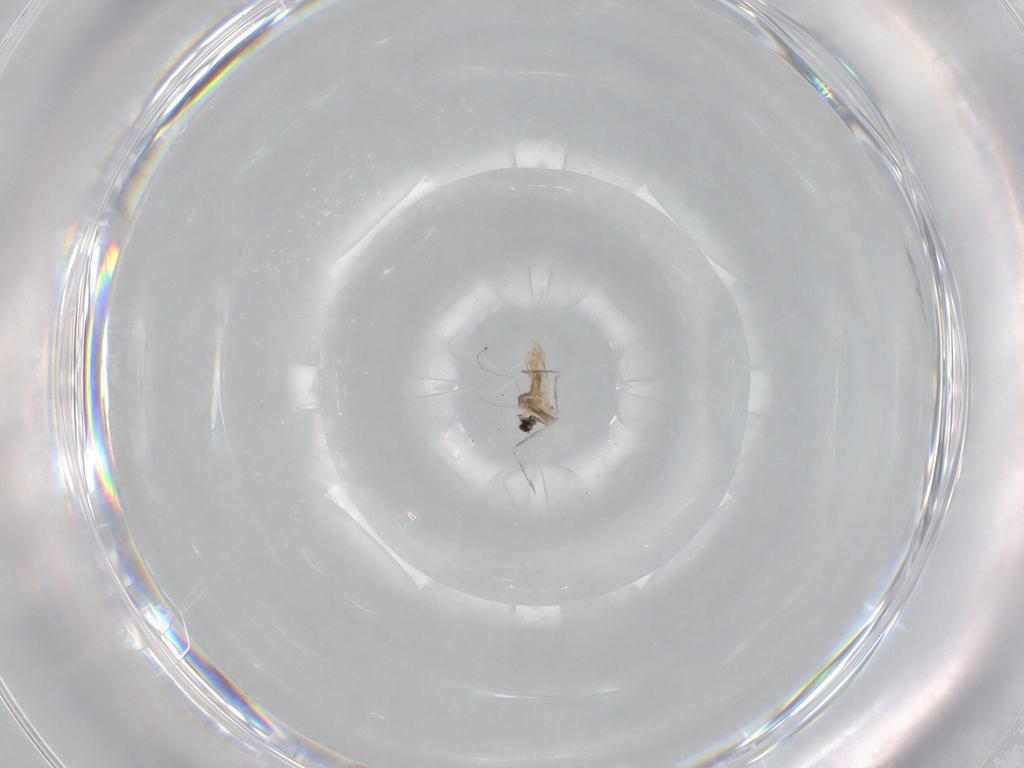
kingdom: Animalia
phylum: Arthropoda
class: Insecta
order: Diptera
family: Cecidomyiidae
